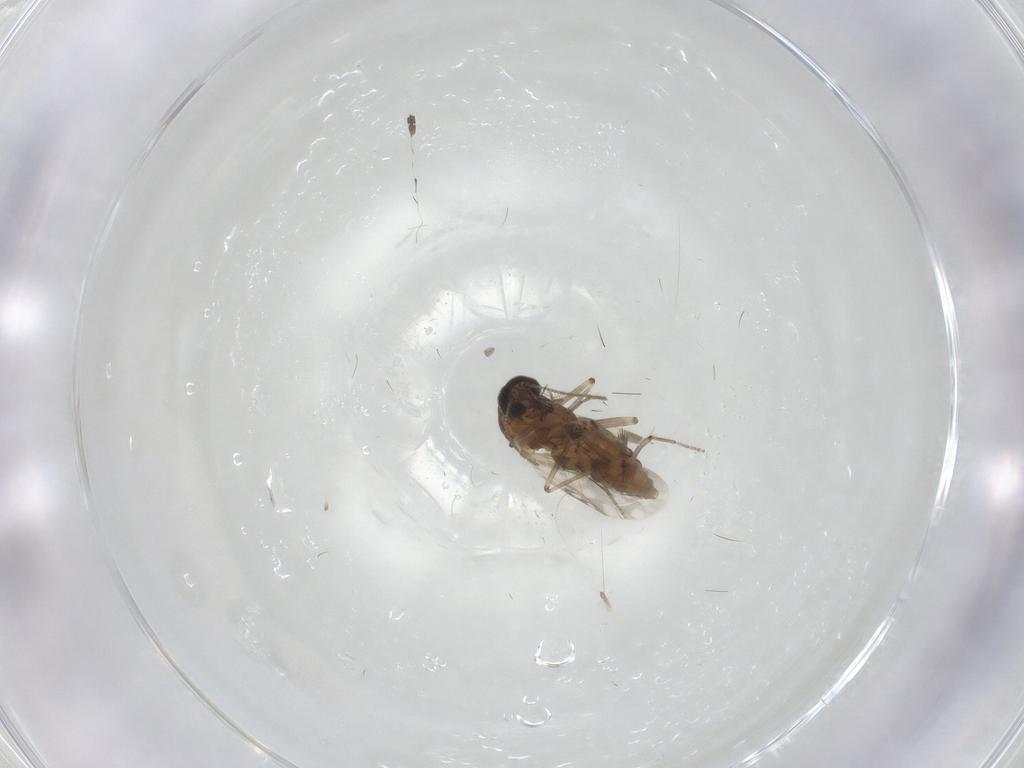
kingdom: Animalia
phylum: Arthropoda
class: Insecta
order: Diptera
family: Cecidomyiidae
